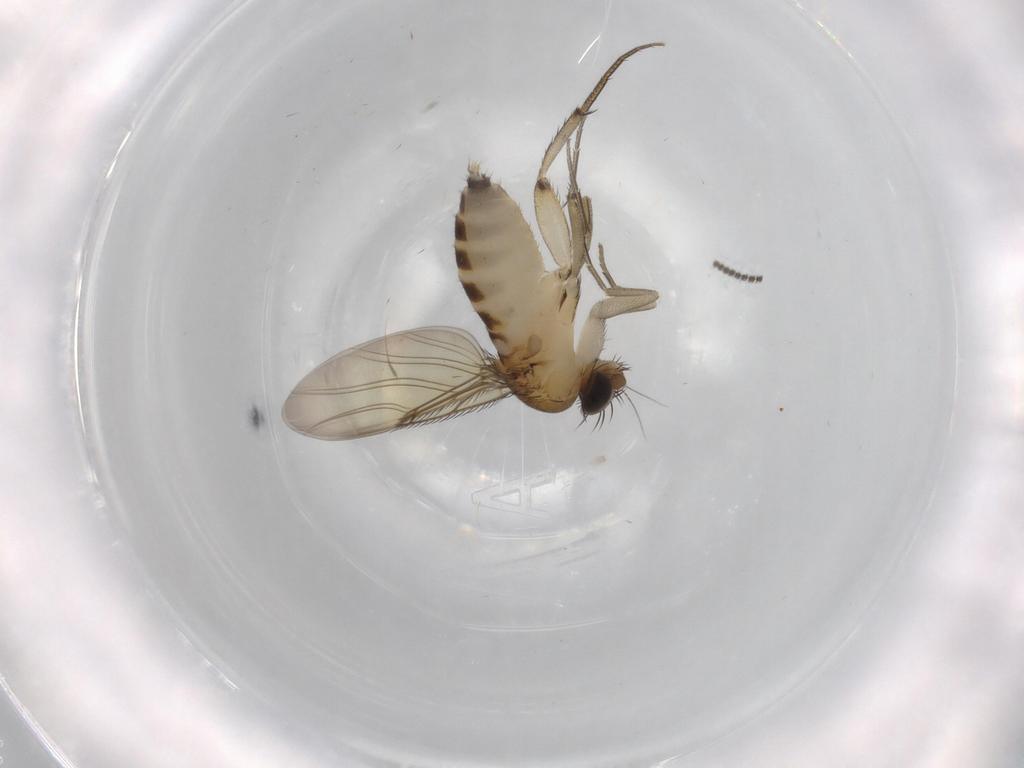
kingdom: Animalia
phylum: Arthropoda
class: Insecta
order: Diptera
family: Phoridae
